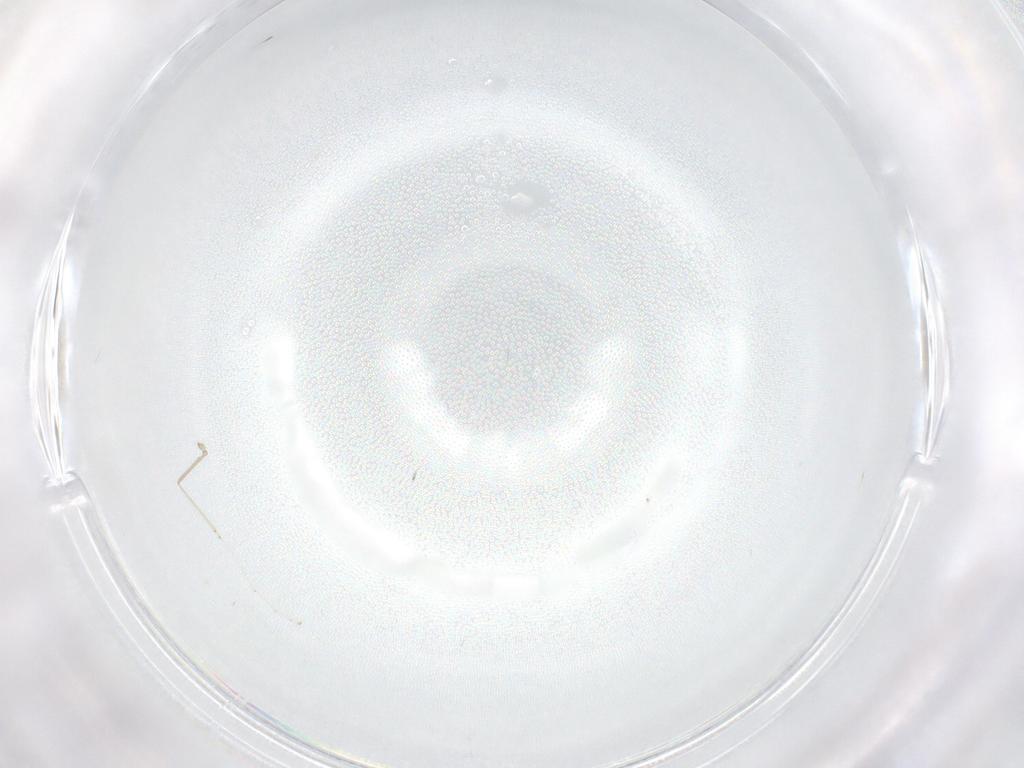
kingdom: Animalia
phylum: Arthropoda
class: Insecta
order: Diptera
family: Cecidomyiidae
